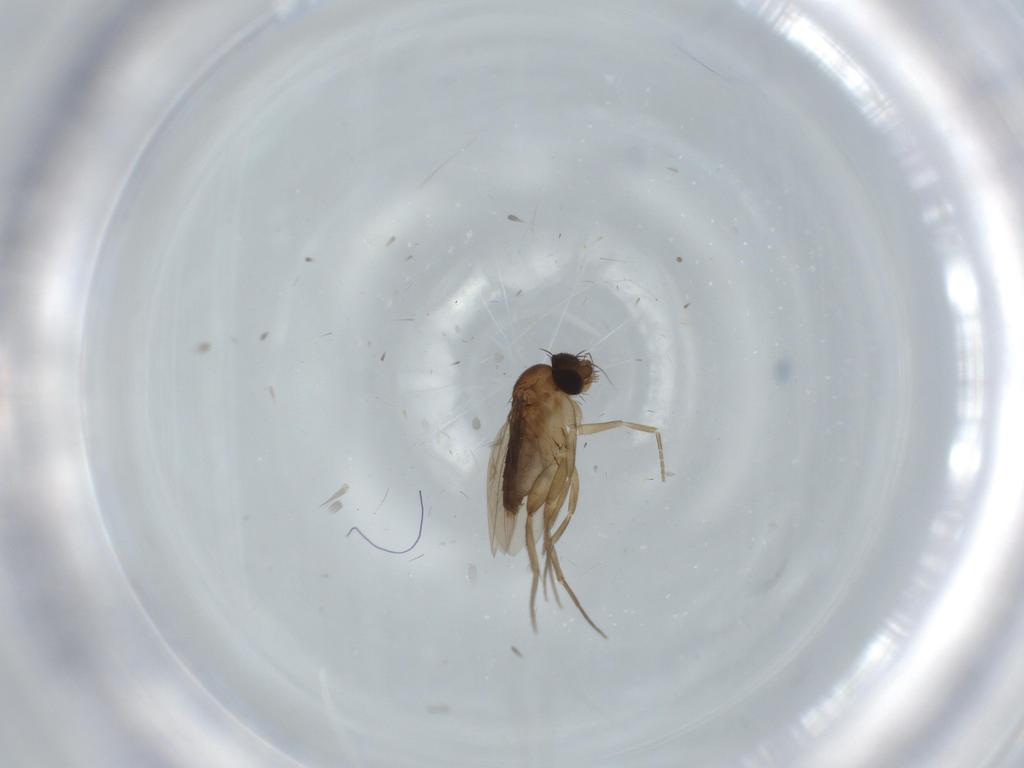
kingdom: Animalia
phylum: Arthropoda
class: Insecta
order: Diptera
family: Phoridae
